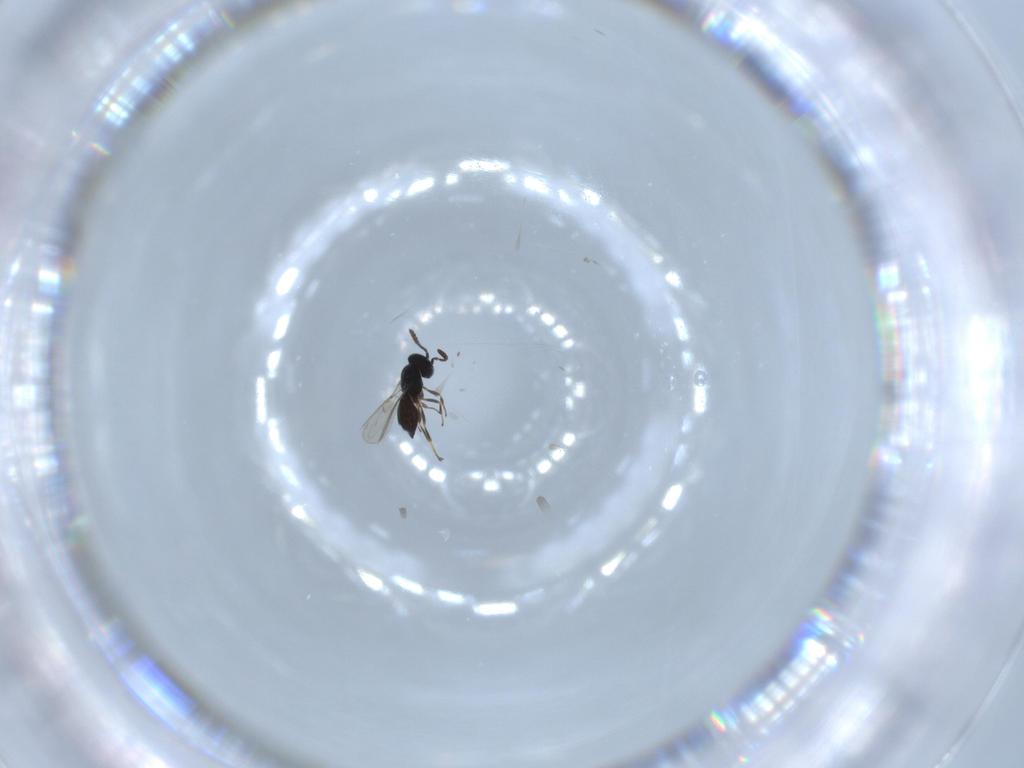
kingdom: Animalia
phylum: Arthropoda
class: Insecta
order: Hymenoptera
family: Scelionidae
